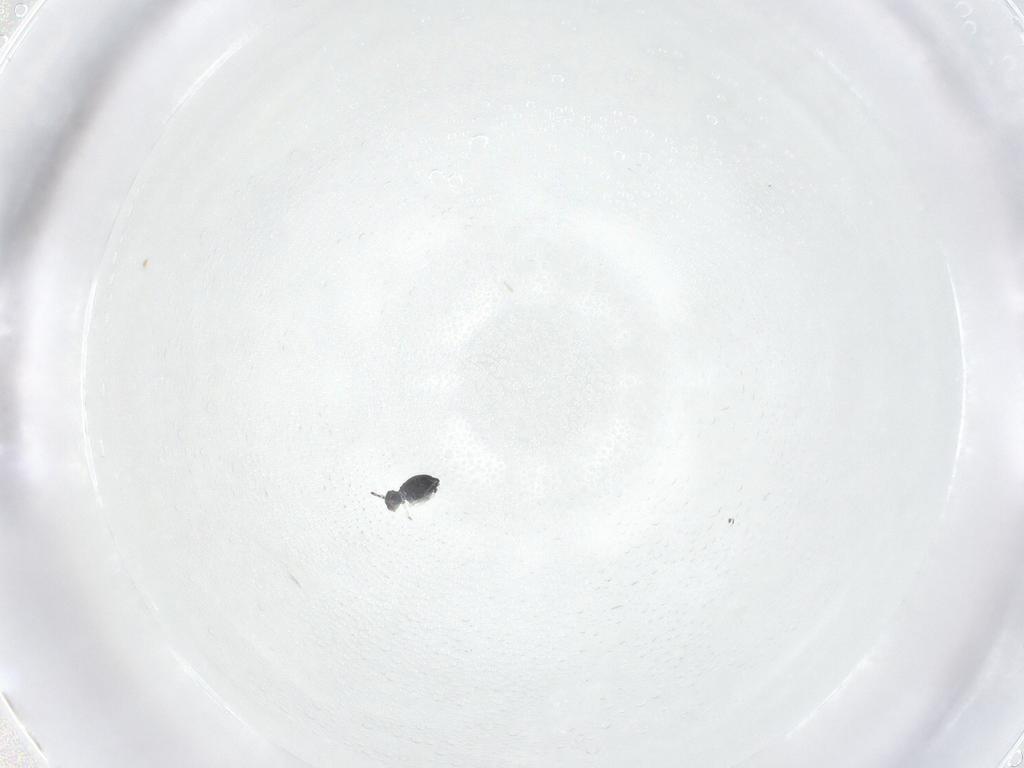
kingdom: Animalia
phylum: Arthropoda
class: Collembola
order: Symphypleona
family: Katiannidae
